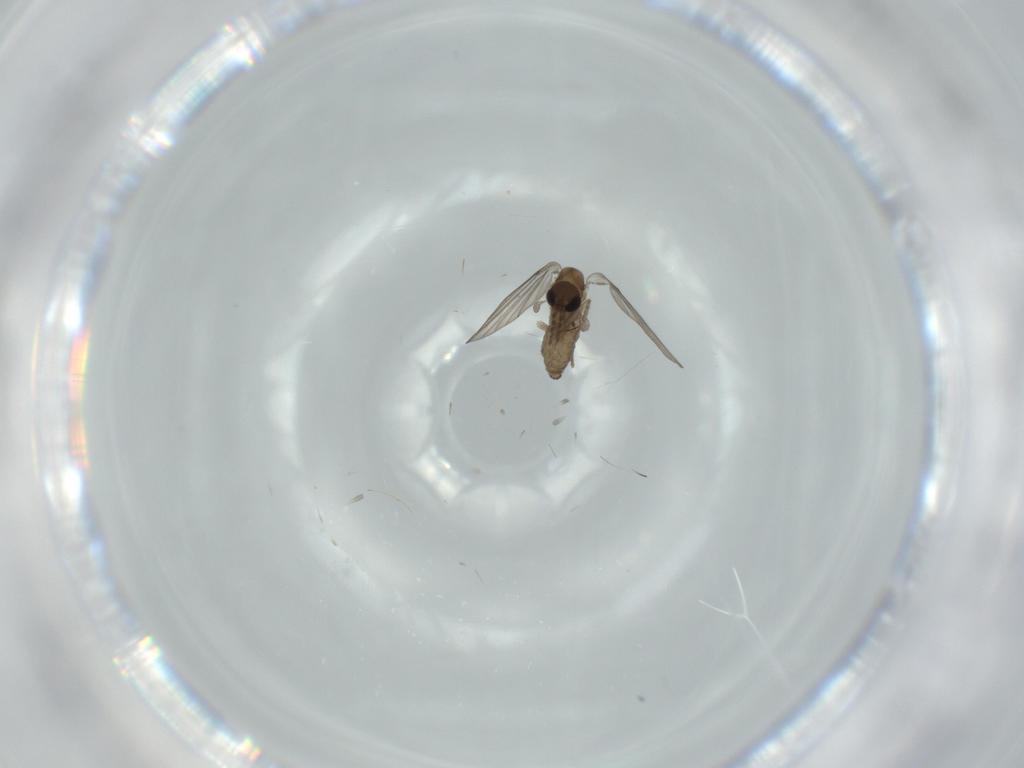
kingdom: Animalia
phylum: Arthropoda
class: Insecta
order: Diptera
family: Psychodidae
